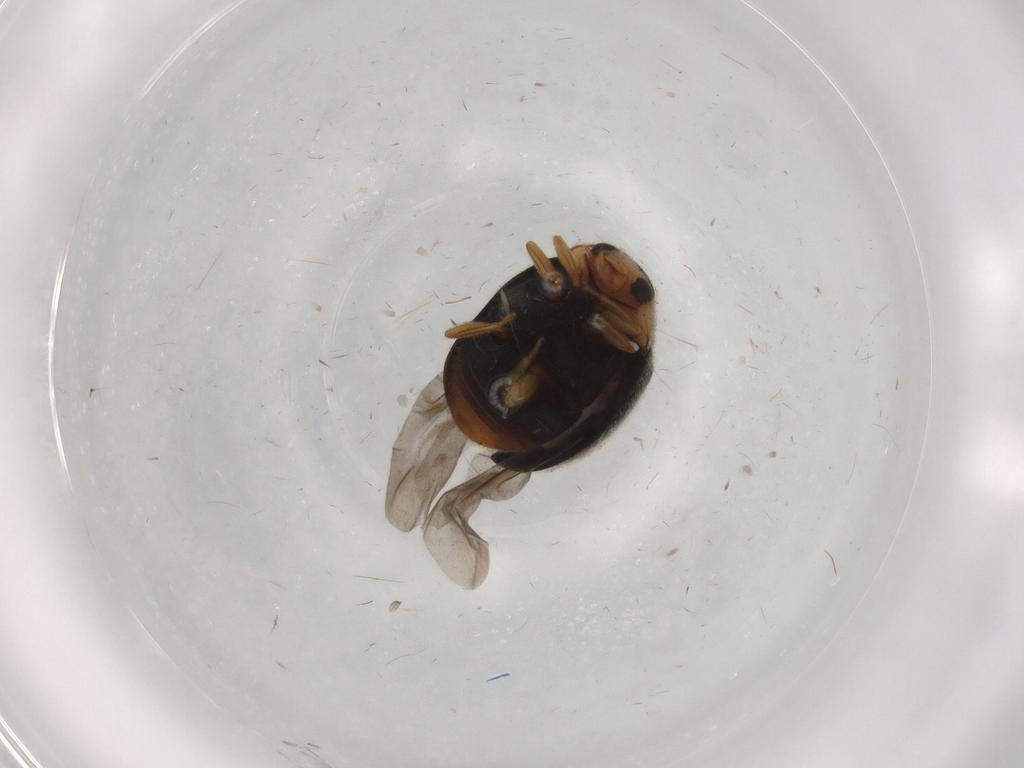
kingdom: Animalia
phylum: Arthropoda
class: Insecta
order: Coleoptera
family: Coccinellidae
